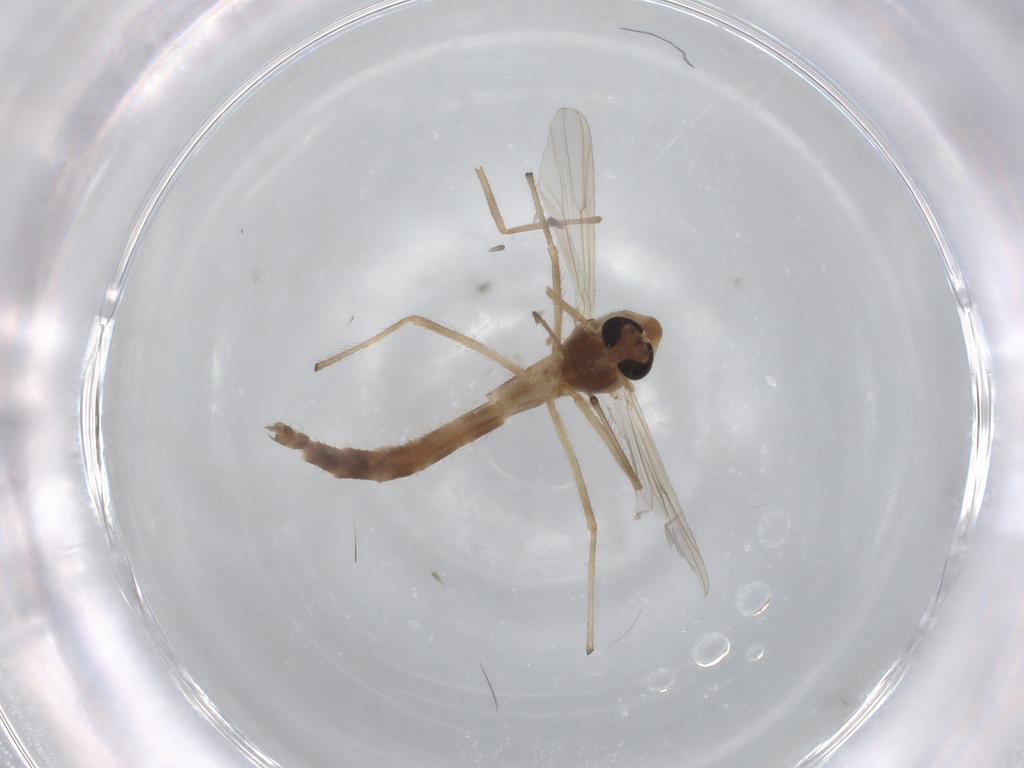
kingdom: Animalia
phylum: Arthropoda
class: Insecta
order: Diptera
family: Chironomidae
